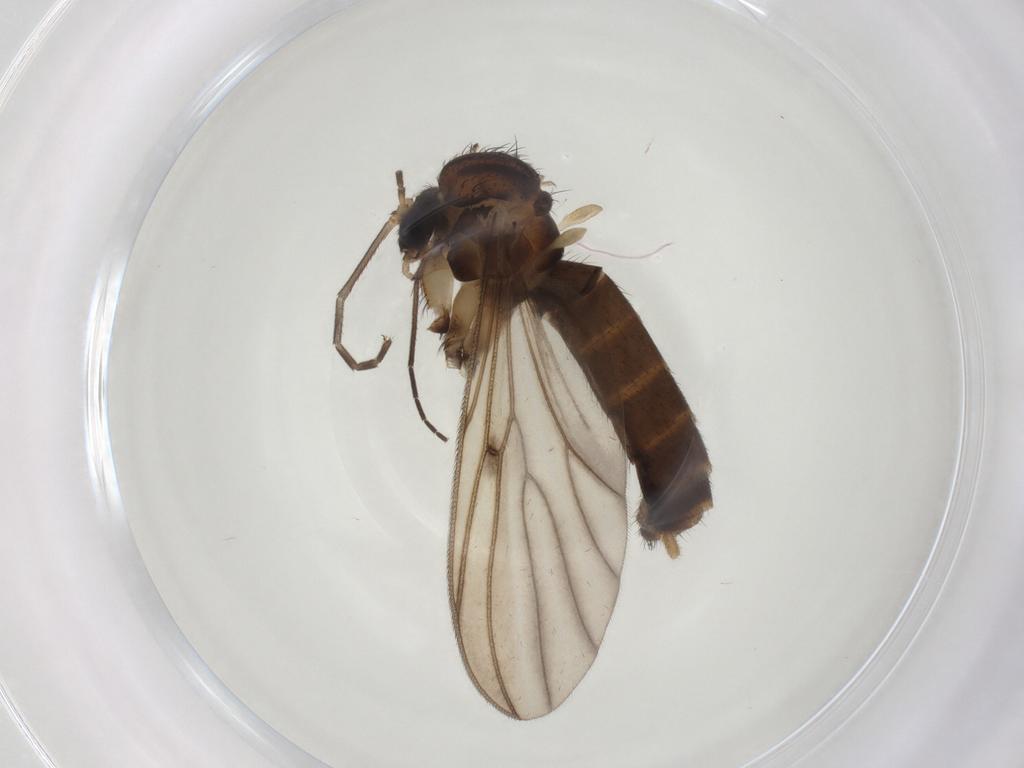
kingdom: Animalia
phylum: Arthropoda
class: Insecta
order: Diptera
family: Mycetophilidae
